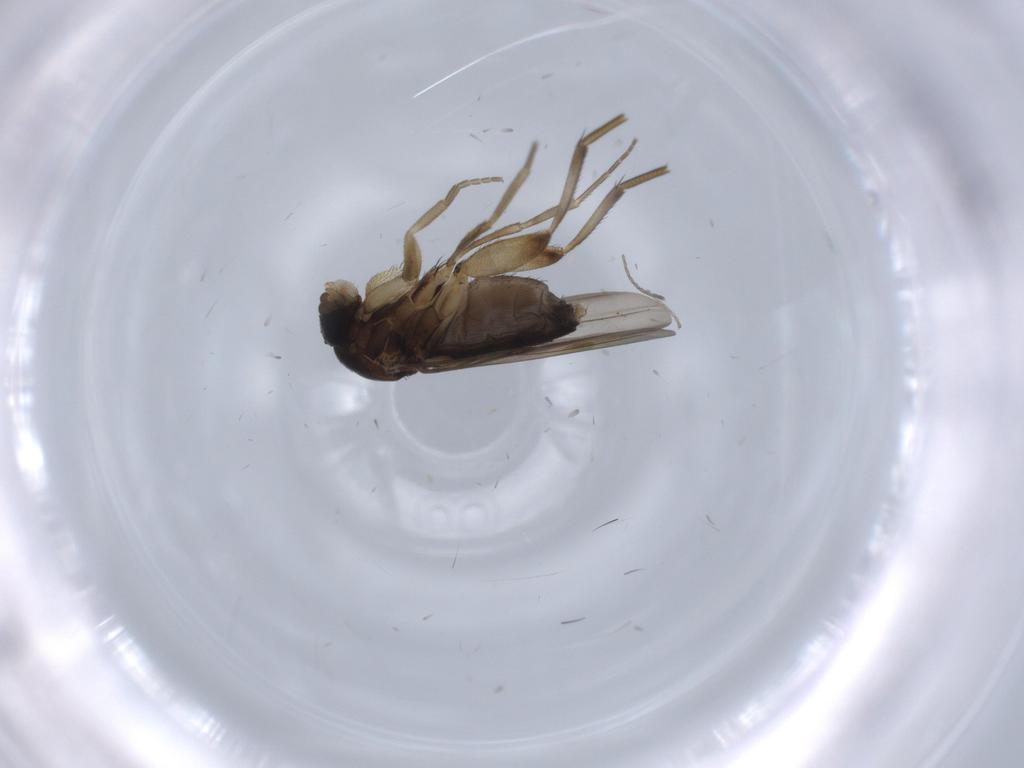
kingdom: Animalia
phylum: Arthropoda
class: Insecta
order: Diptera
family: Phoridae
